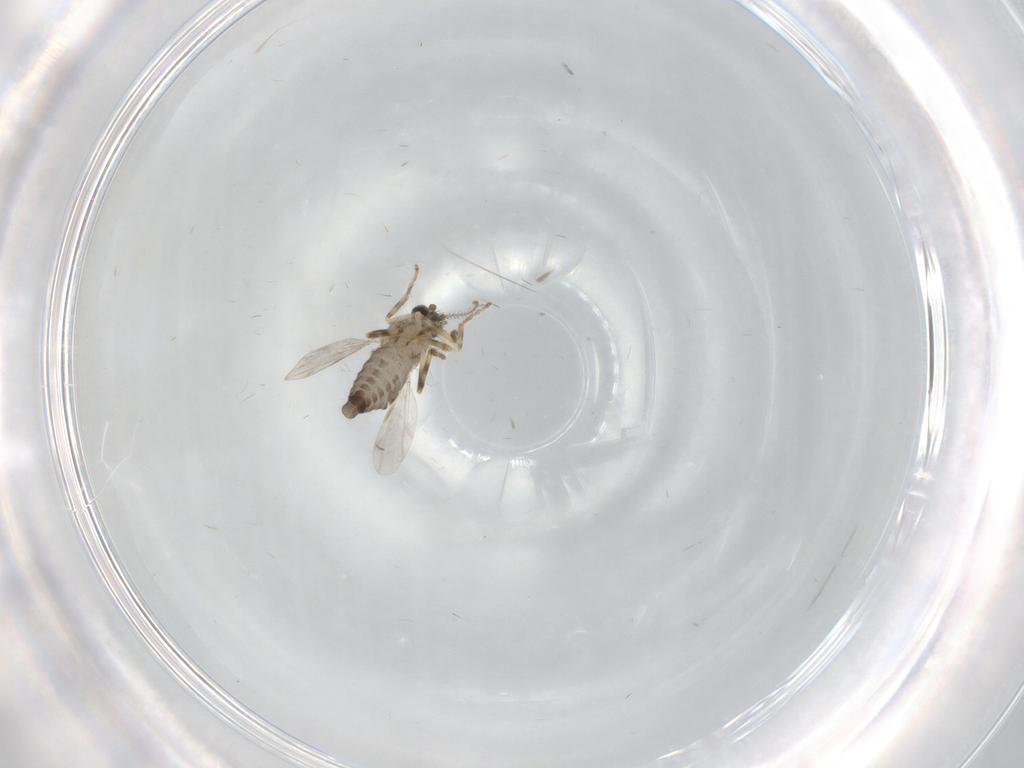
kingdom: Animalia
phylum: Arthropoda
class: Insecta
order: Diptera
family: Ceratopogonidae
